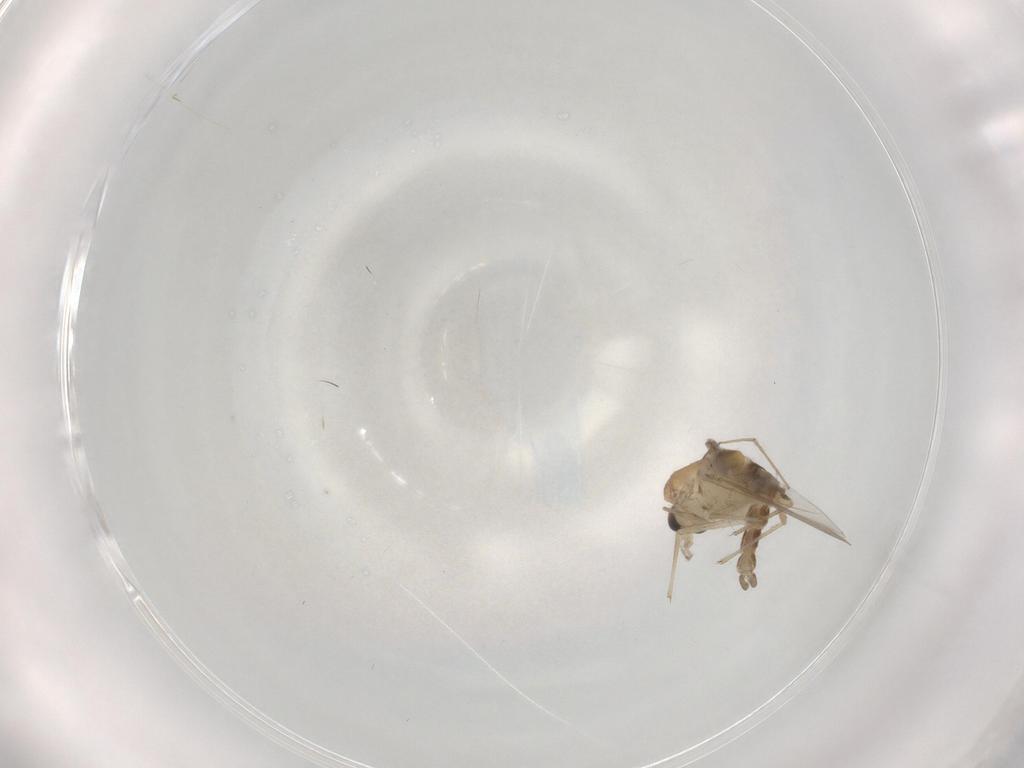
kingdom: Animalia
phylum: Arthropoda
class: Insecta
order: Diptera
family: Chironomidae
